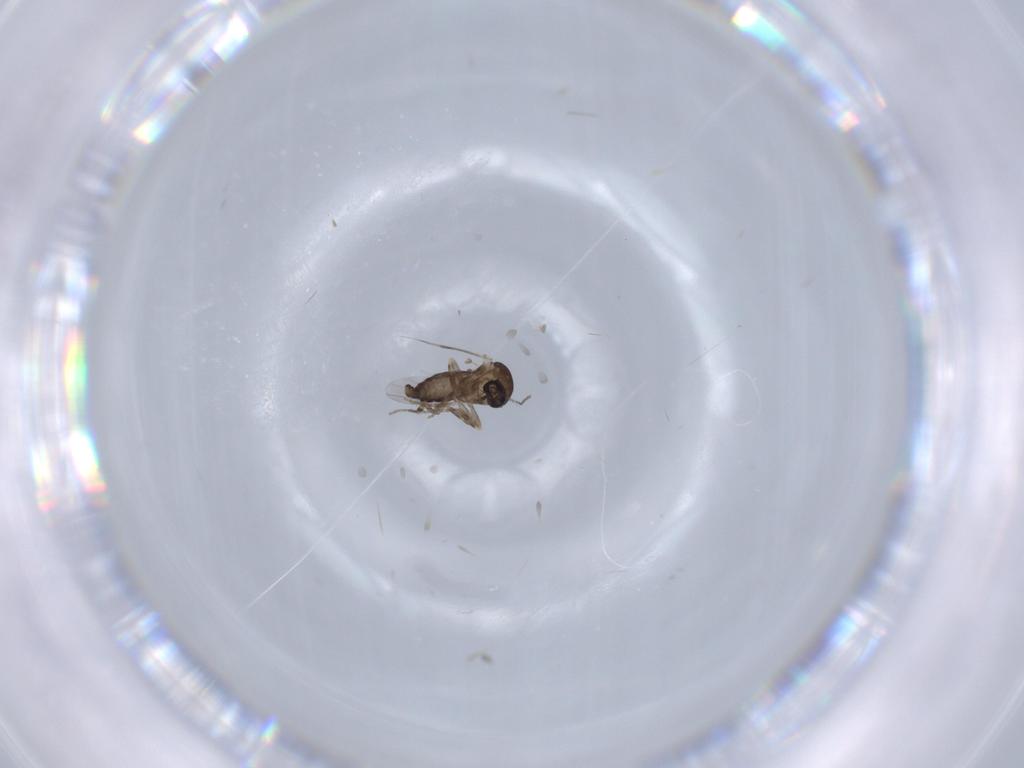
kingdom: Animalia
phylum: Arthropoda
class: Insecta
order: Diptera
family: Ceratopogonidae
